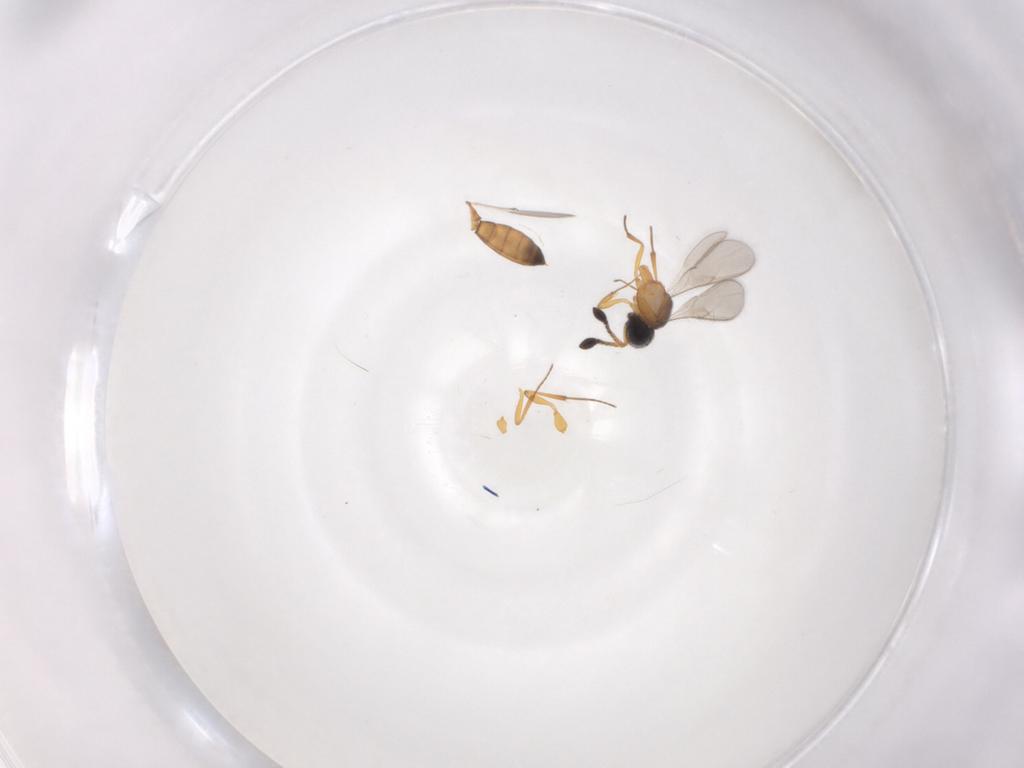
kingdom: Animalia
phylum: Arthropoda
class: Insecta
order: Hymenoptera
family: Scelionidae
